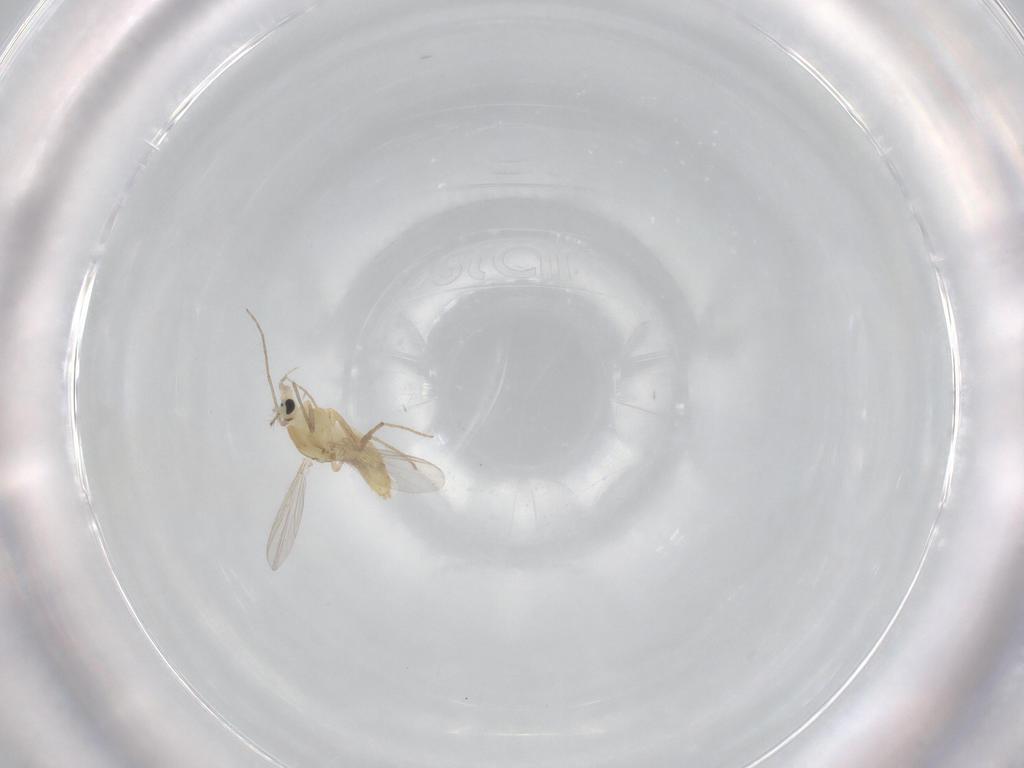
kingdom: Animalia
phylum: Arthropoda
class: Insecta
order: Diptera
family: Chironomidae
